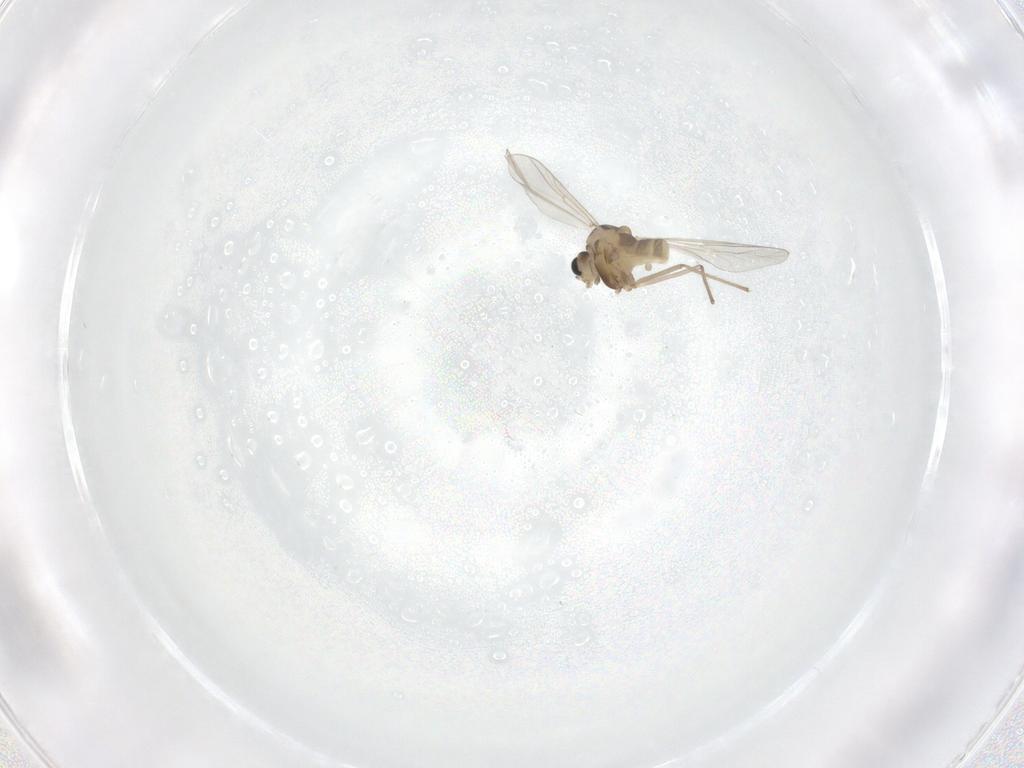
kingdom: Animalia
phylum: Arthropoda
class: Insecta
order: Diptera
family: Chironomidae
